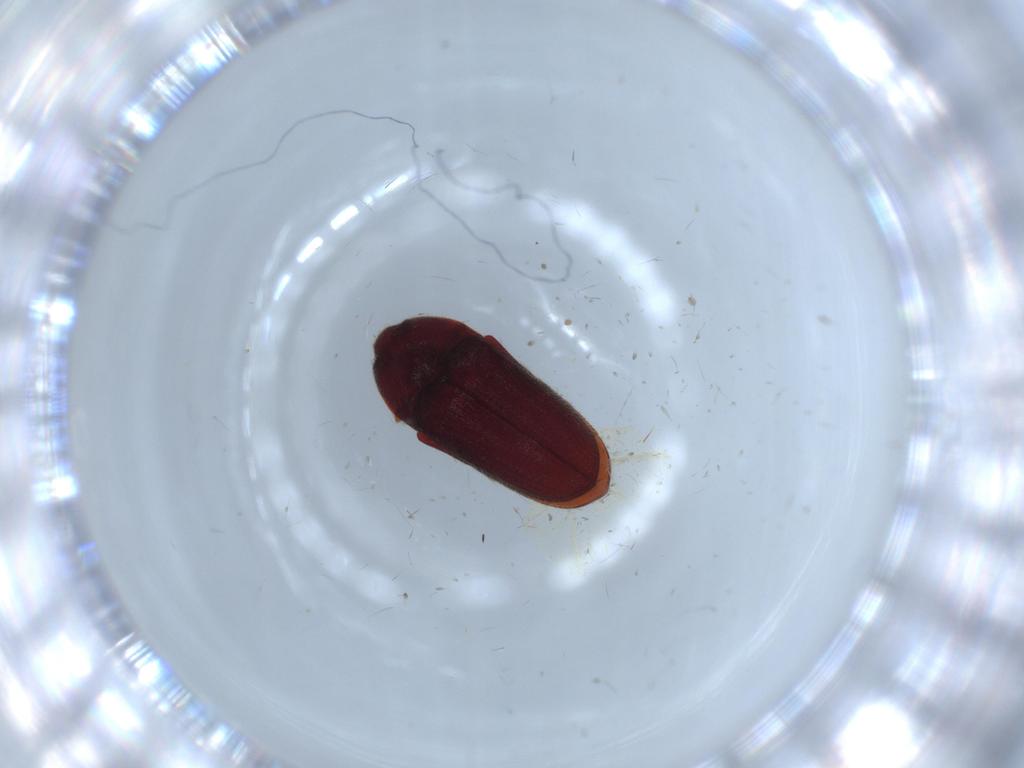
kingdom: Animalia
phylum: Arthropoda
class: Insecta
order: Coleoptera
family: Throscidae
